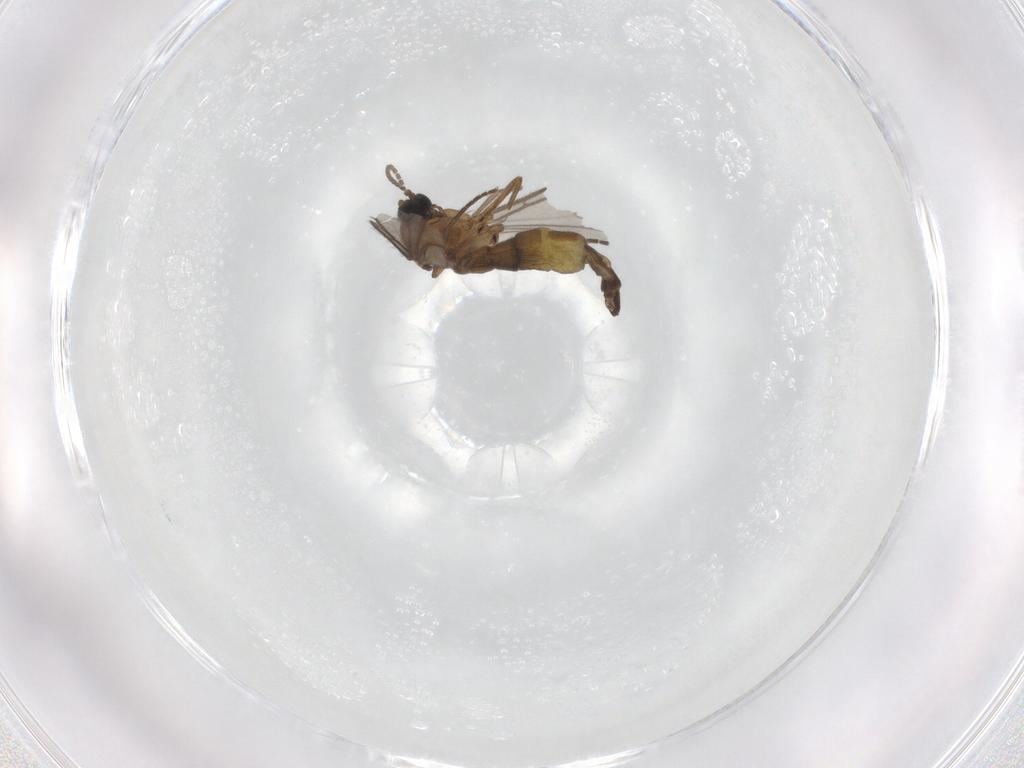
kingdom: Animalia
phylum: Arthropoda
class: Insecta
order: Diptera
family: Sciaridae
